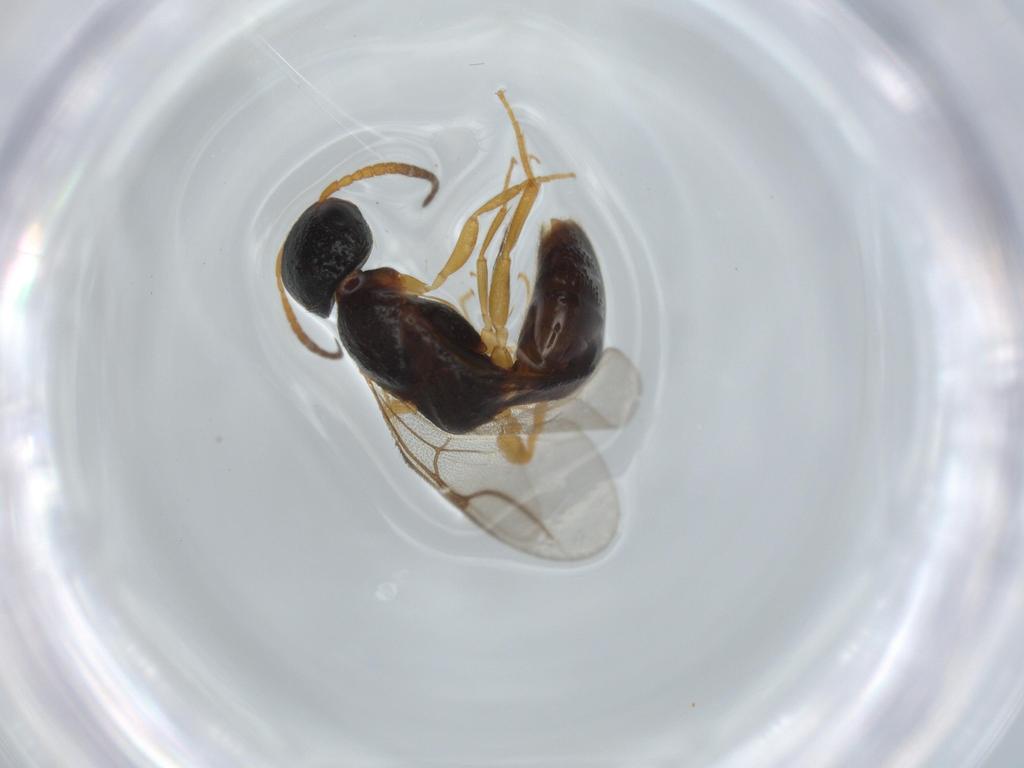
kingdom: Animalia
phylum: Arthropoda
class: Insecta
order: Hymenoptera
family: Bethylidae
